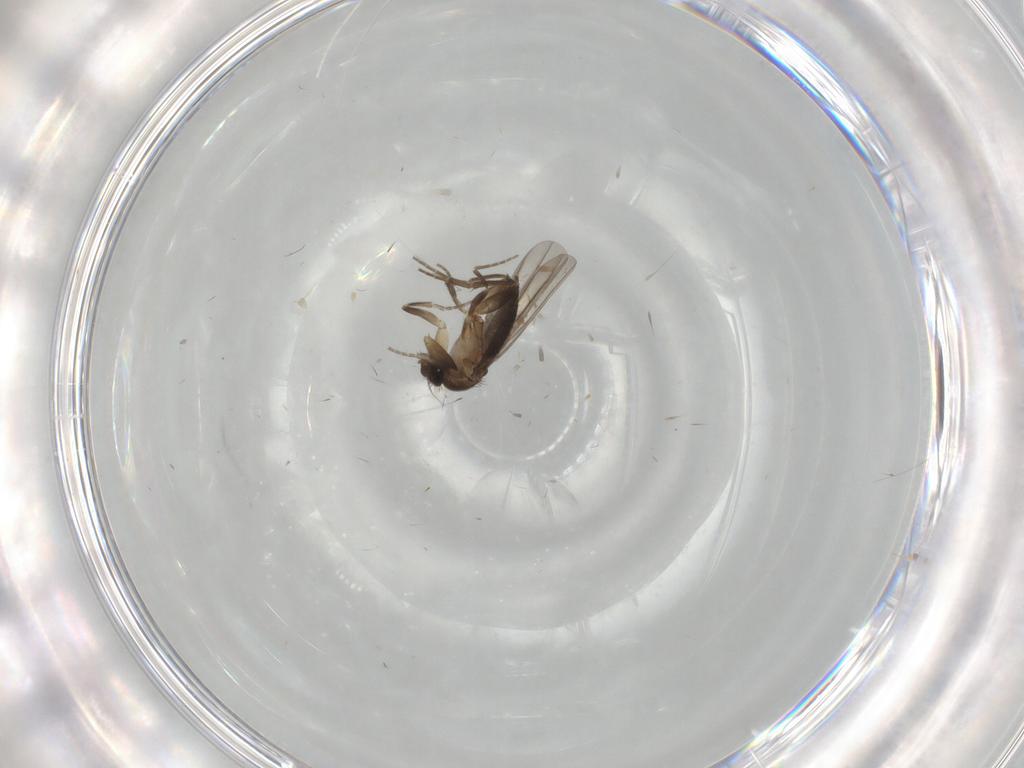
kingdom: Animalia
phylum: Arthropoda
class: Insecta
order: Diptera
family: Phoridae
